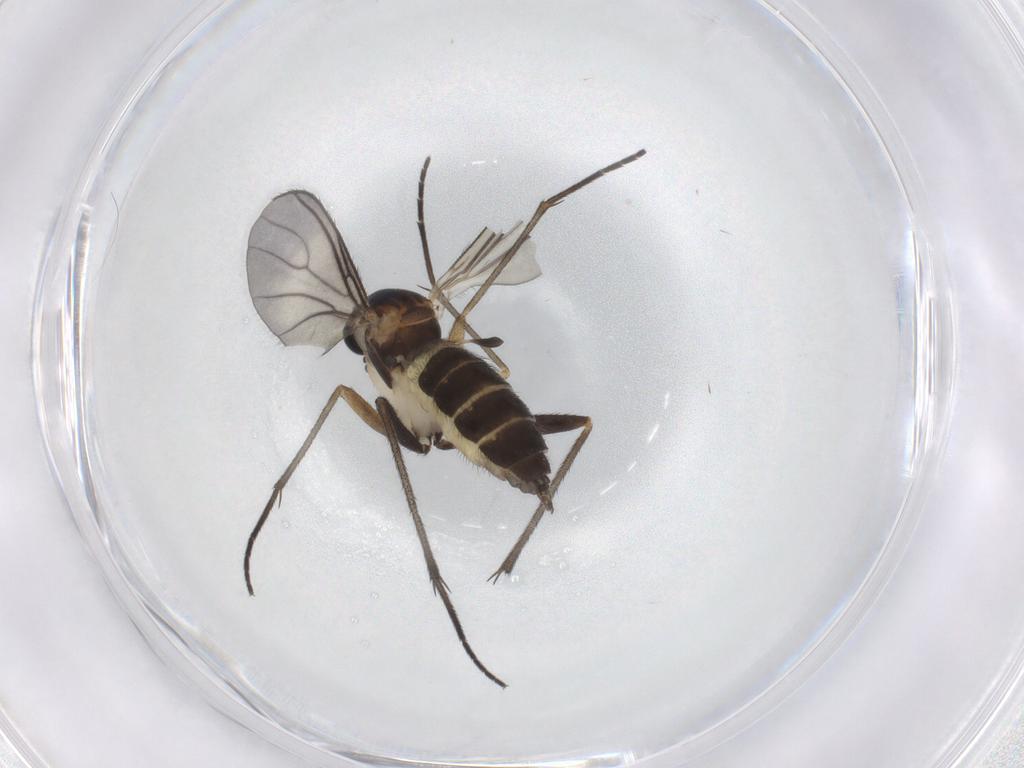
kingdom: Animalia
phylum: Arthropoda
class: Insecta
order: Diptera
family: Sciaridae
